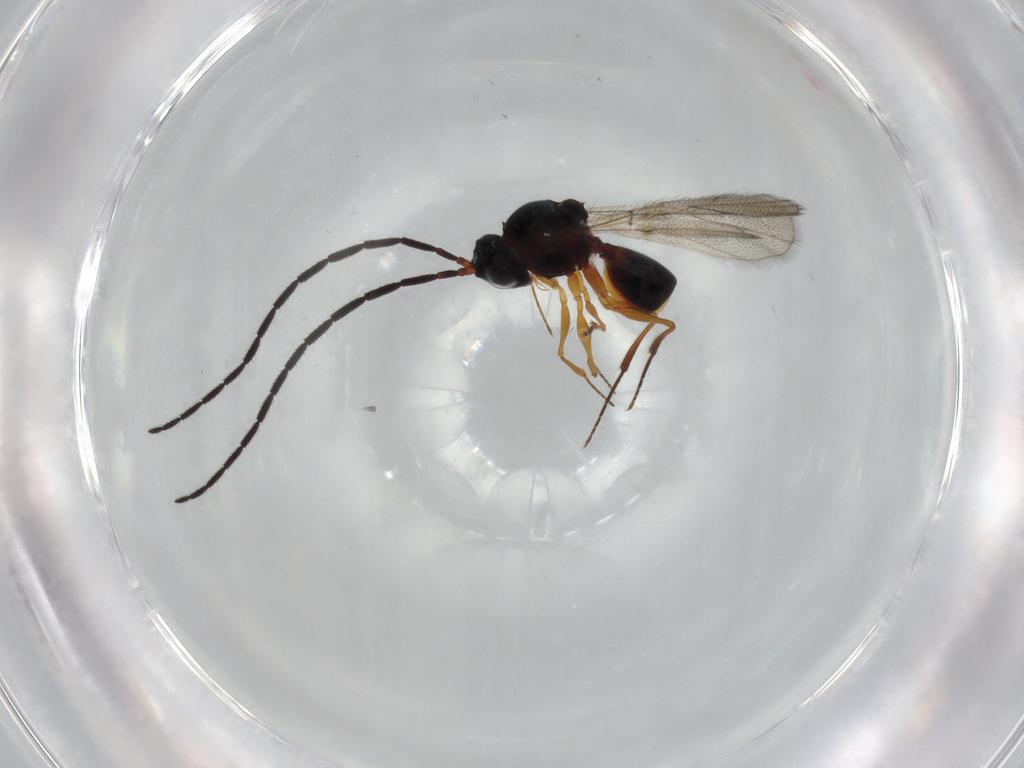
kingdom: Animalia
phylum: Arthropoda
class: Insecta
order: Hymenoptera
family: Figitidae
